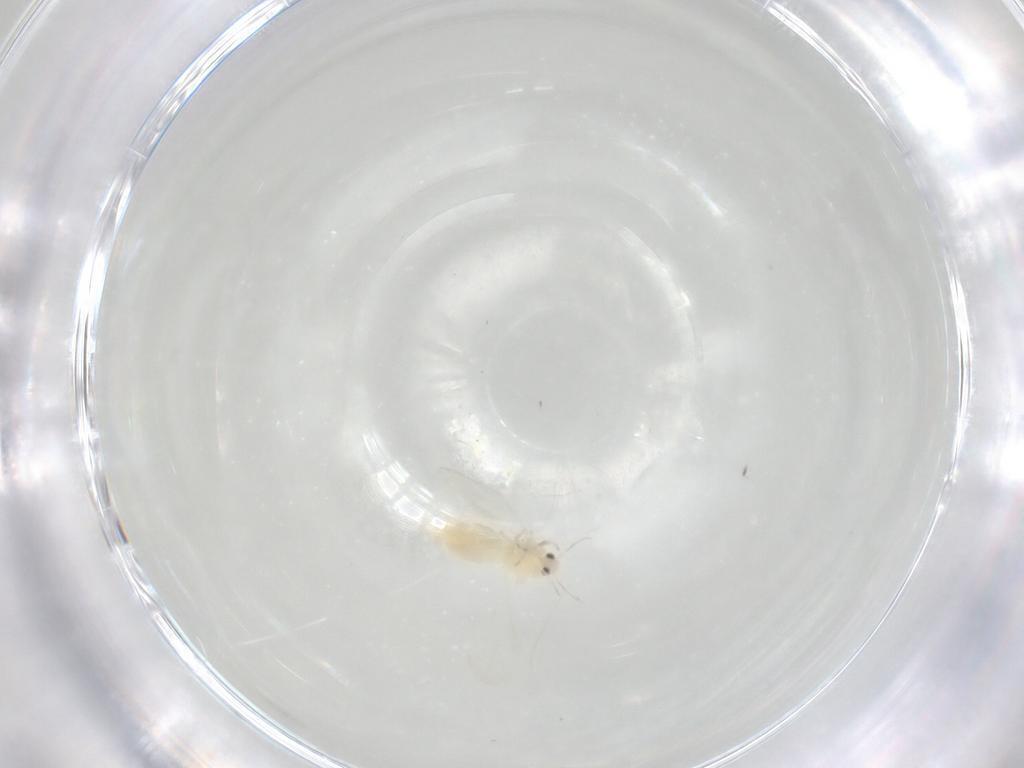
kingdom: Animalia
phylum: Arthropoda
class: Insecta
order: Hemiptera
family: Aleyrodidae
